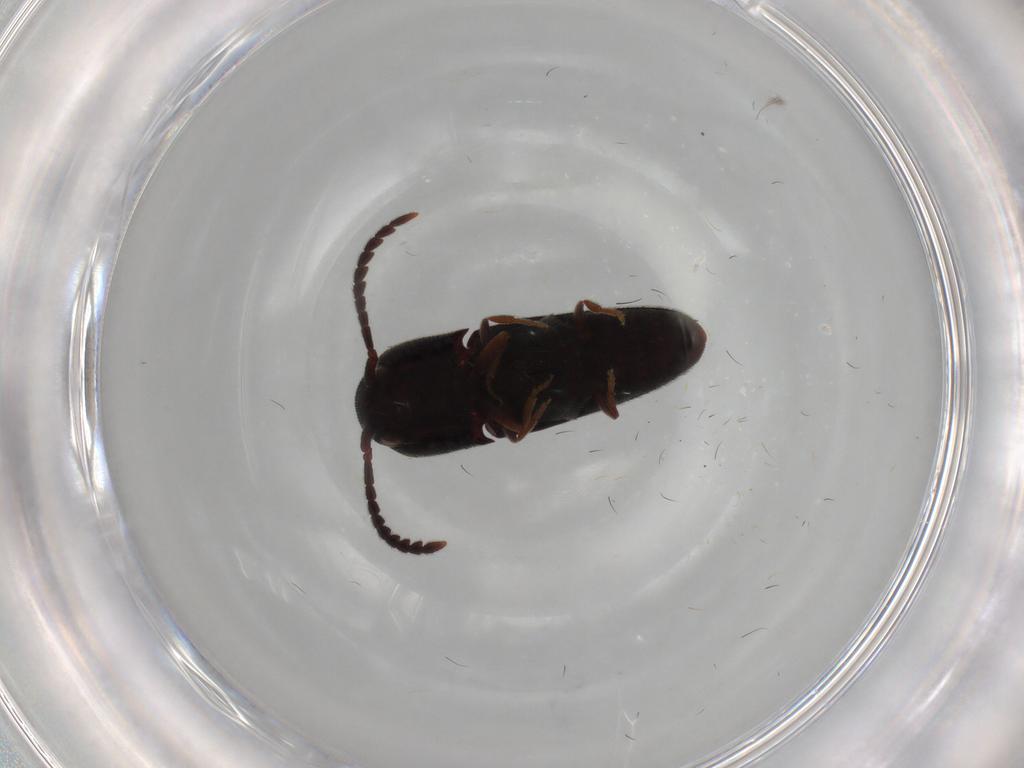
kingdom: Animalia
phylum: Arthropoda
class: Insecta
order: Coleoptera
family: Eucnemidae
